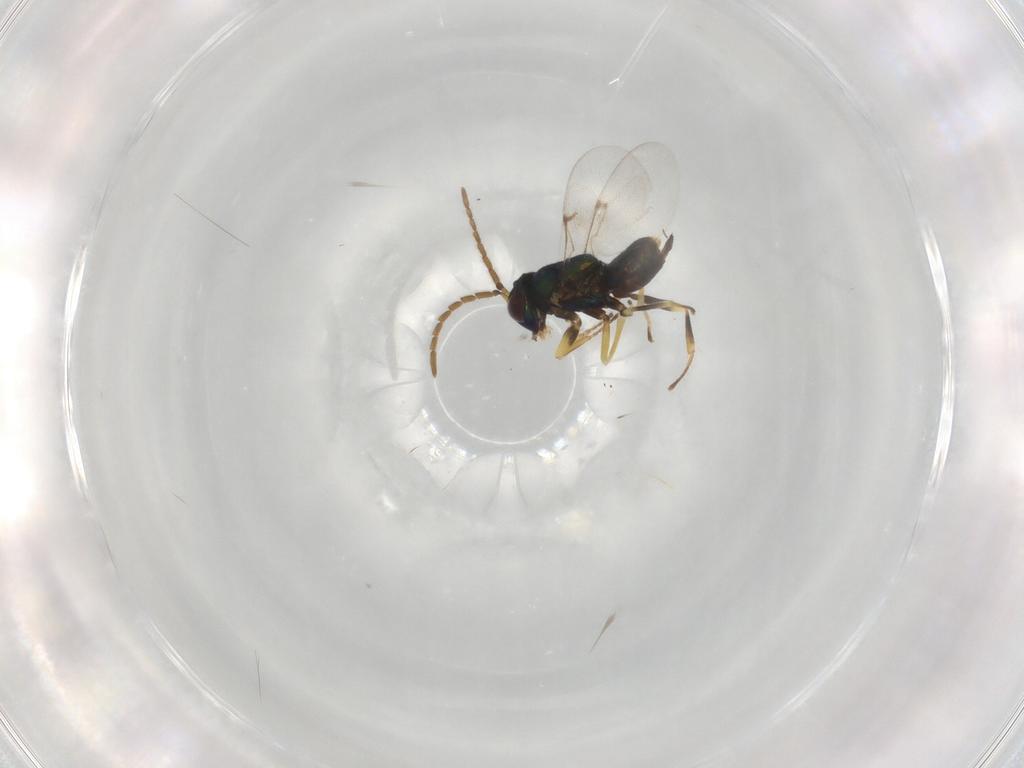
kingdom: Animalia
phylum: Arthropoda
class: Insecta
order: Hymenoptera
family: Encyrtidae
